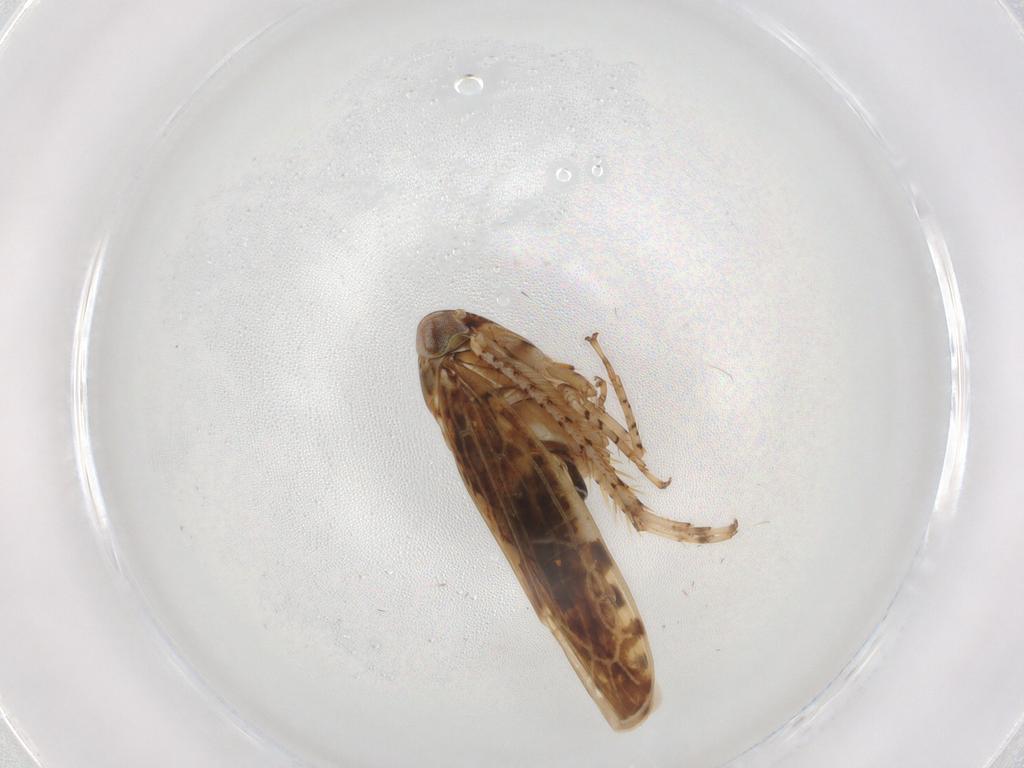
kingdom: Animalia
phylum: Arthropoda
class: Insecta
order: Hemiptera
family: Cicadellidae
